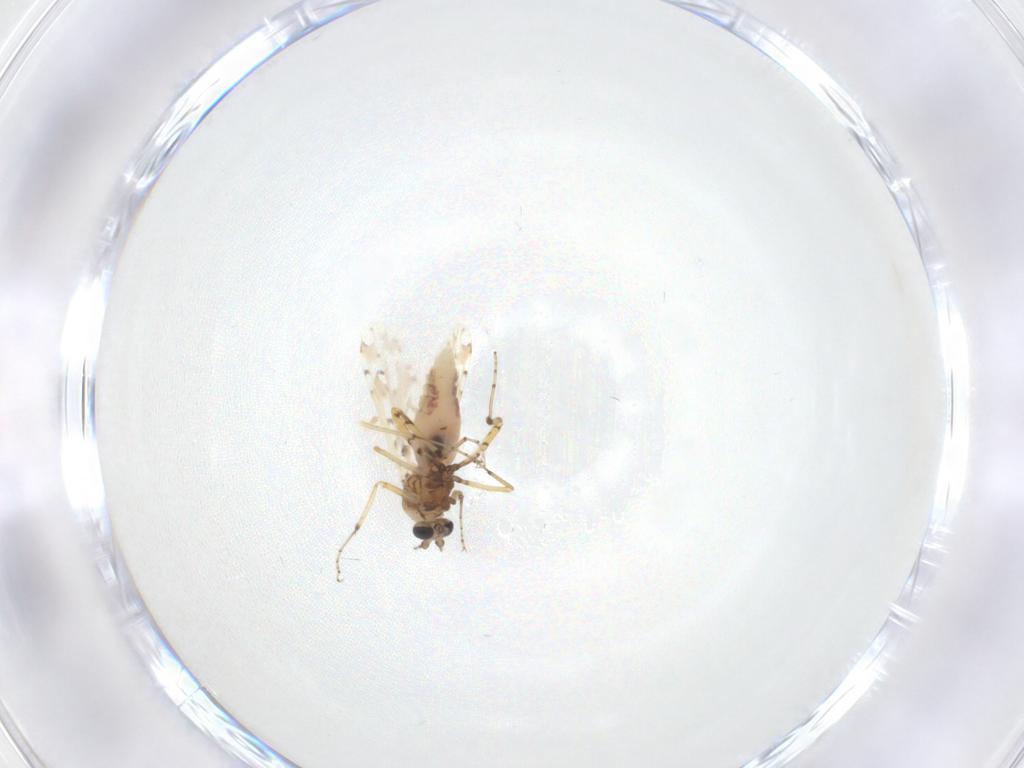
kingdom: Animalia
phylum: Arthropoda
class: Insecta
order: Diptera
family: Ceratopogonidae
